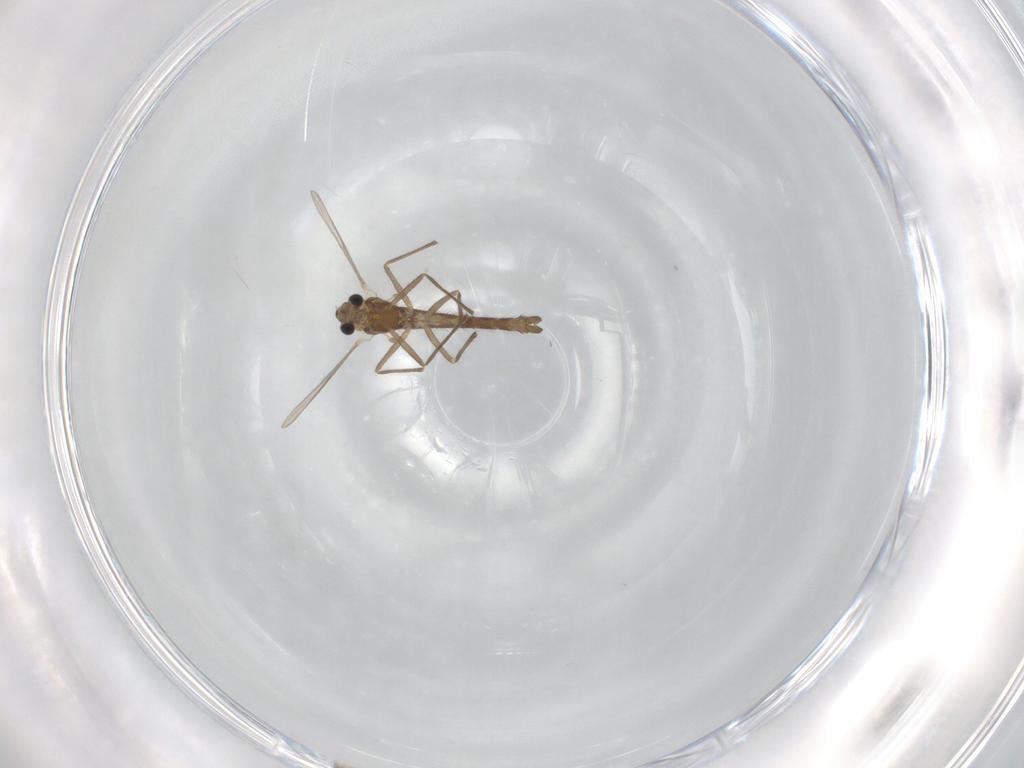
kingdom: Animalia
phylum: Arthropoda
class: Insecta
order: Diptera
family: Chironomidae
